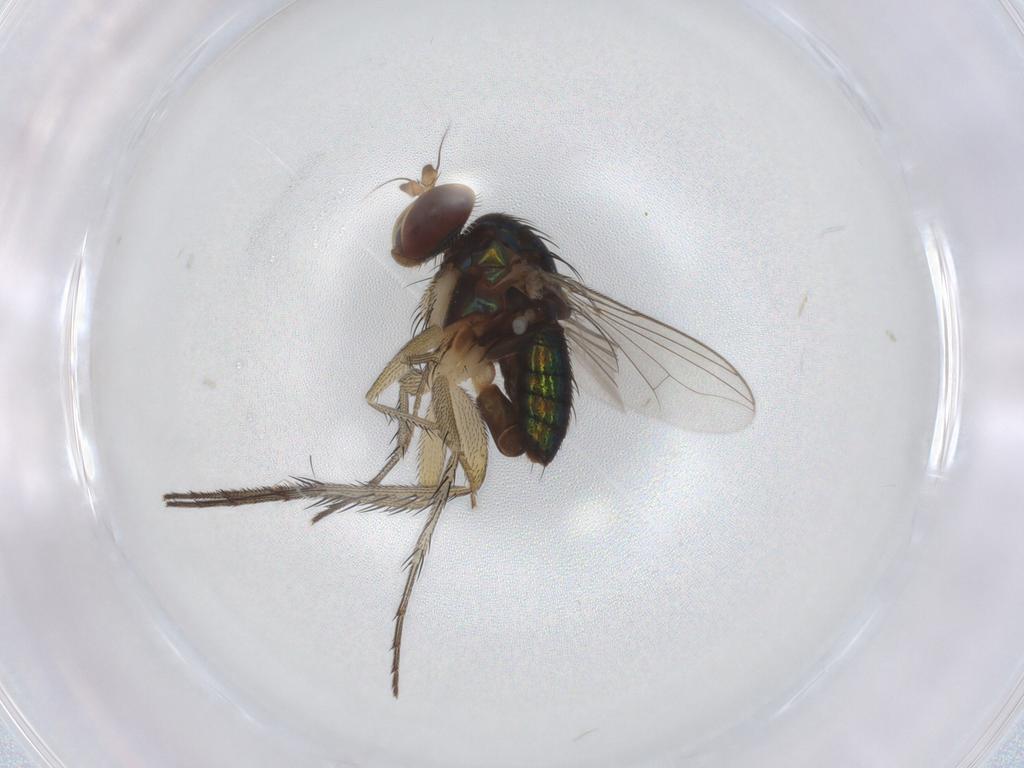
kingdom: Animalia
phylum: Arthropoda
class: Insecta
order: Diptera
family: Dolichopodidae
